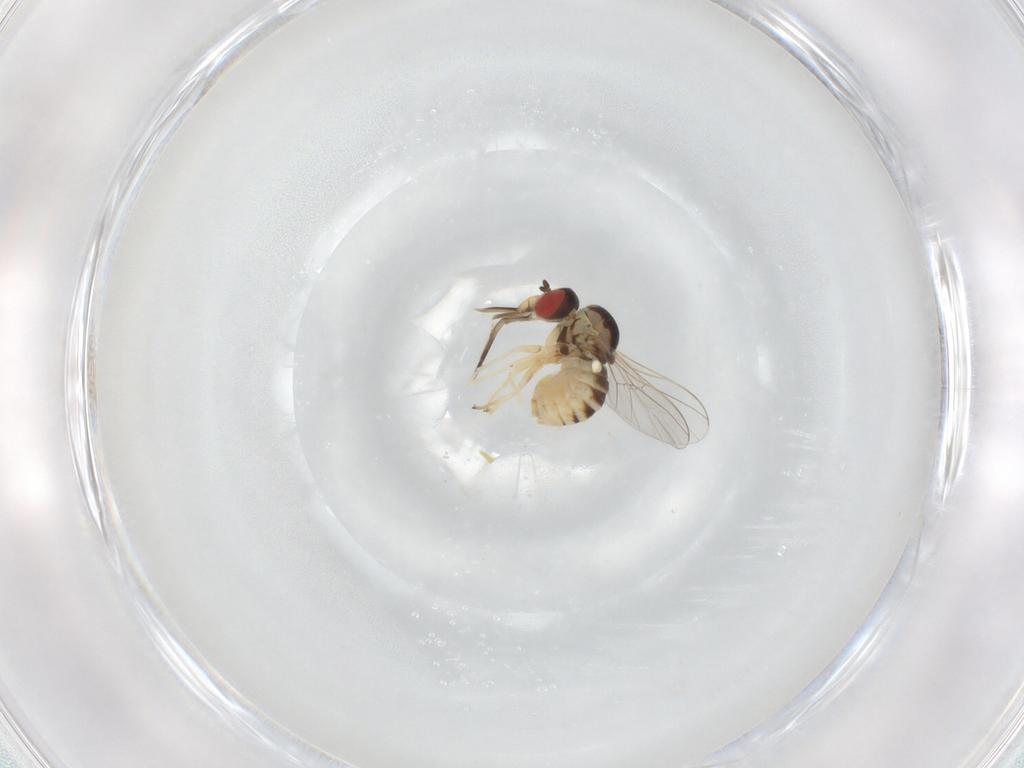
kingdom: Animalia
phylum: Arthropoda
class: Insecta
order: Diptera
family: Bombyliidae
